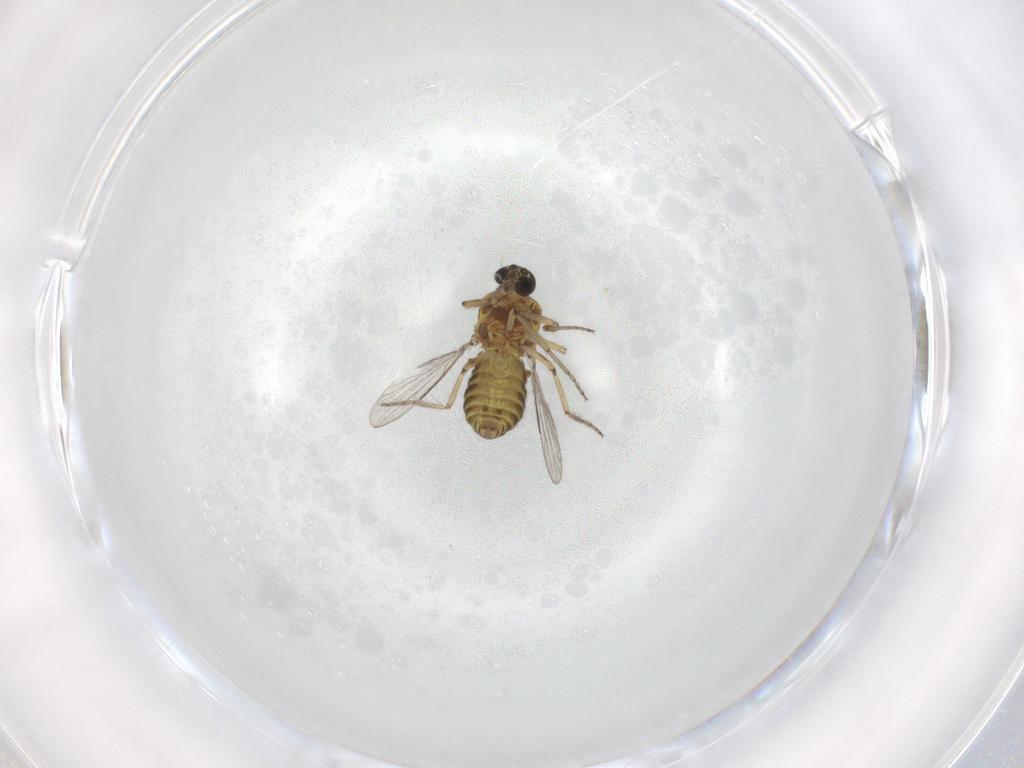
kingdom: Animalia
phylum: Arthropoda
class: Insecta
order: Diptera
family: Ceratopogonidae
